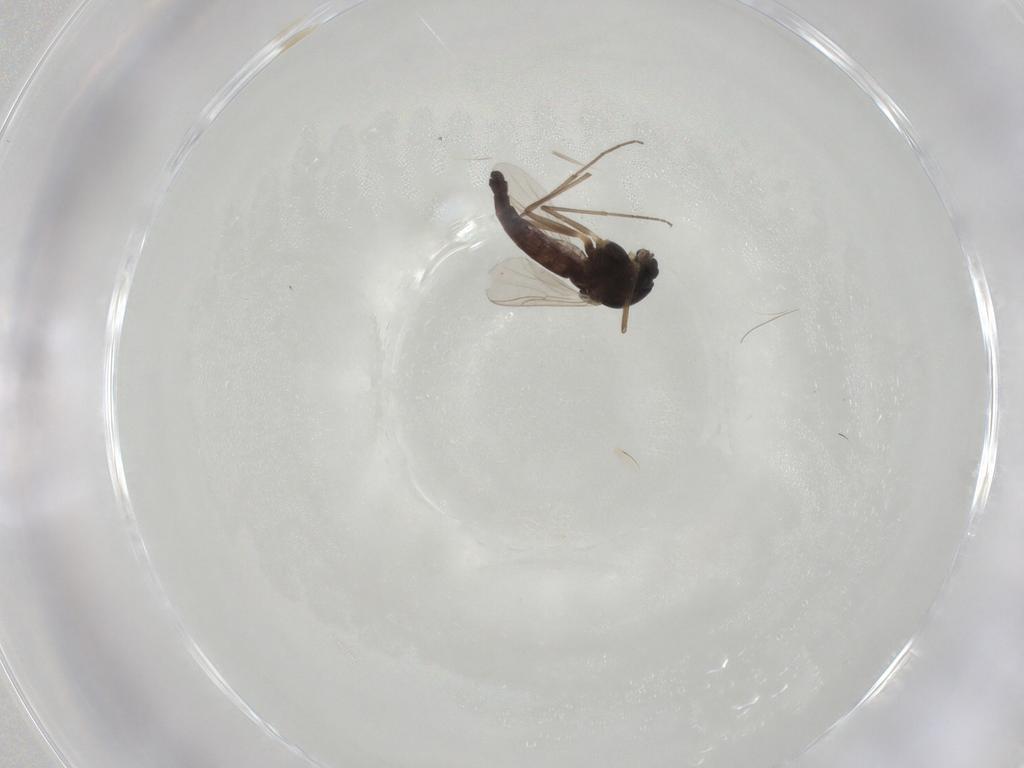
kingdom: Animalia
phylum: Arthropoda
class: Insecta
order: Diptera
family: Chironomidae
